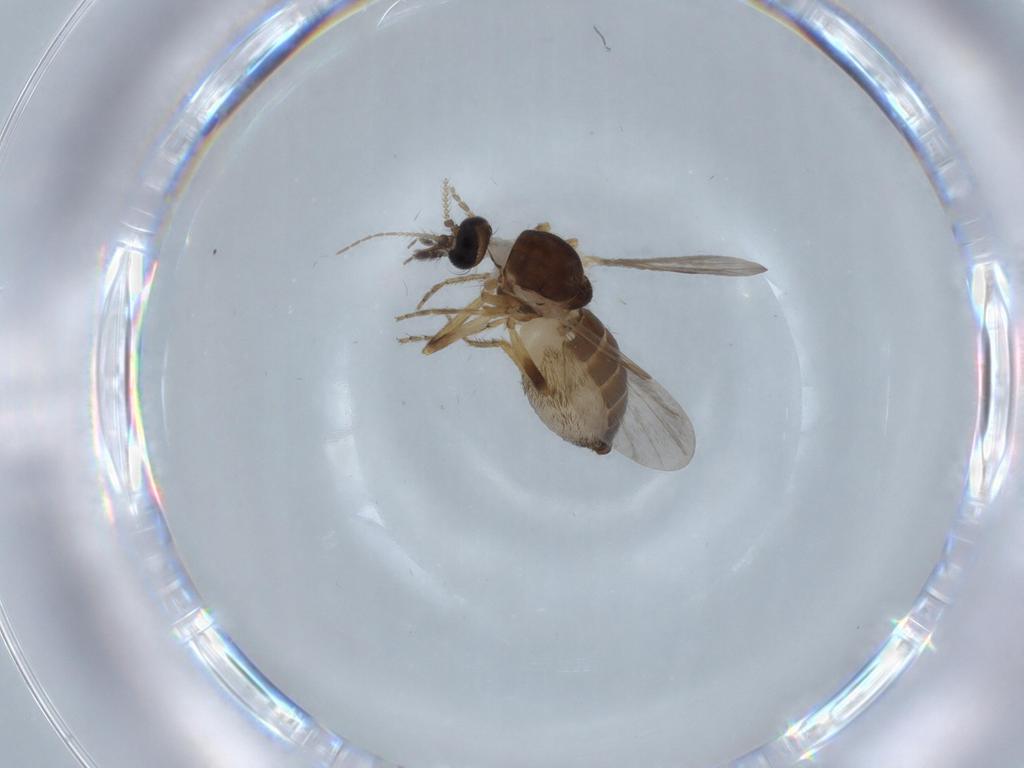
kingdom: Animalia
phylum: Arthropoda
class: Insecta
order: Diptera
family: Ceratopogonidae
